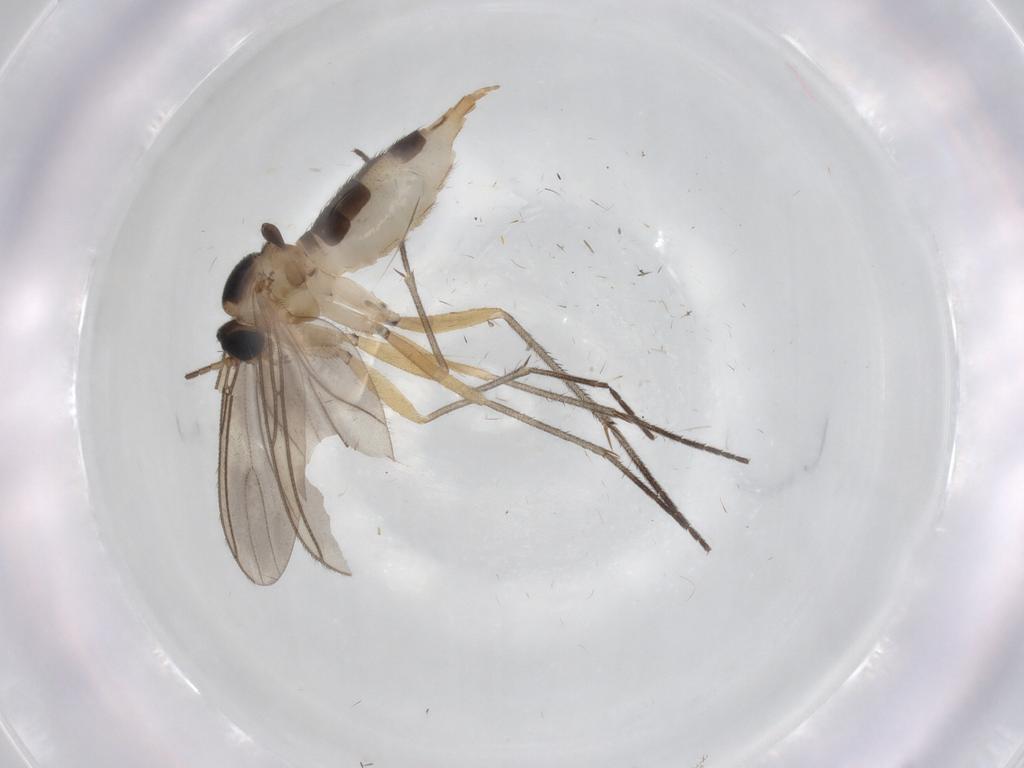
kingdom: Animalia
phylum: Arthropoda
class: Insecta
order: Diptera
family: Sciaridae
